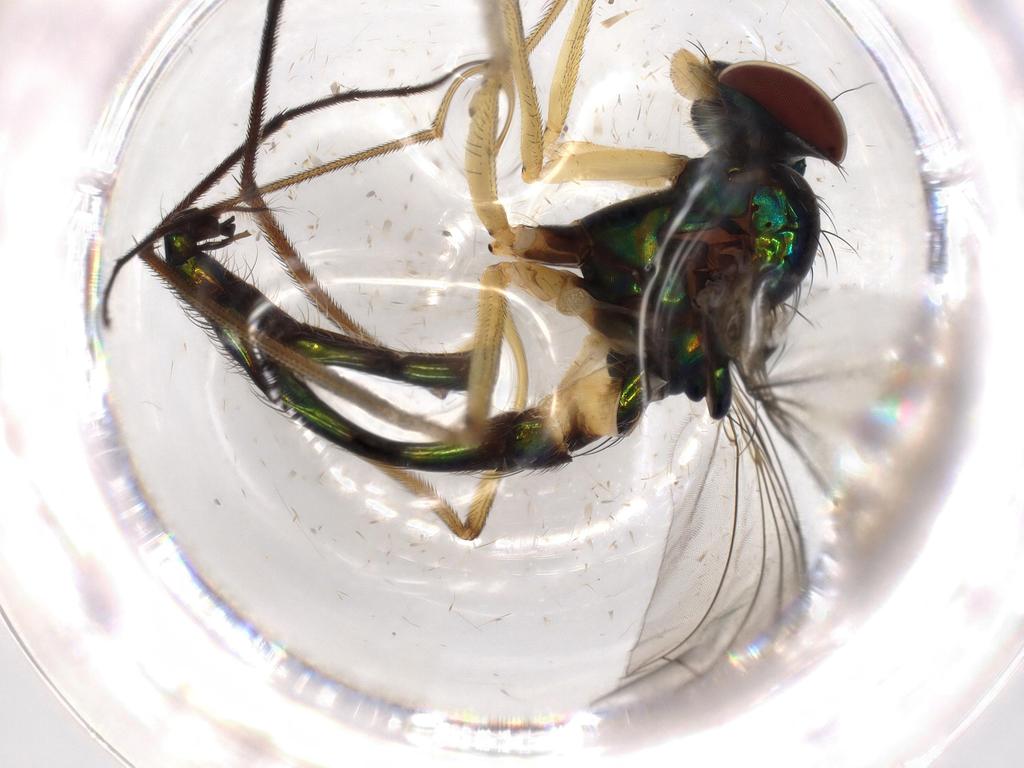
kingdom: Animalia
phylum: Arthropoda
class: Insecta
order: Diptera
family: Dolichopodidae
